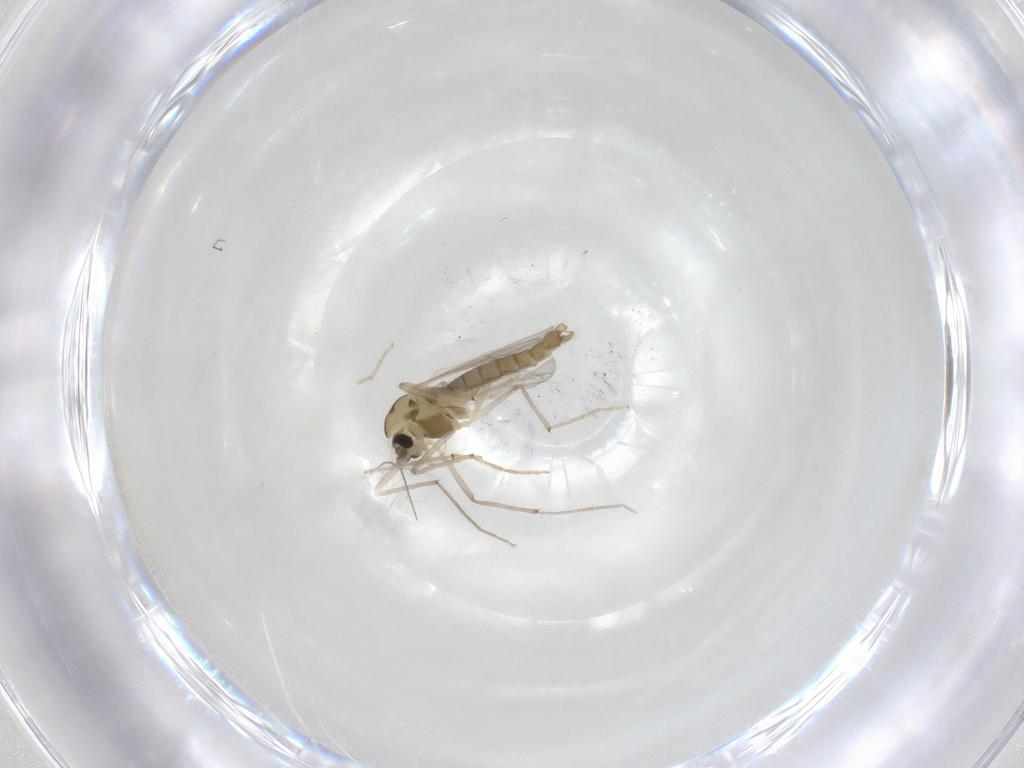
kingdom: Animalia
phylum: Arthropoda
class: Insecta
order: Diptera
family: Chironomidae
